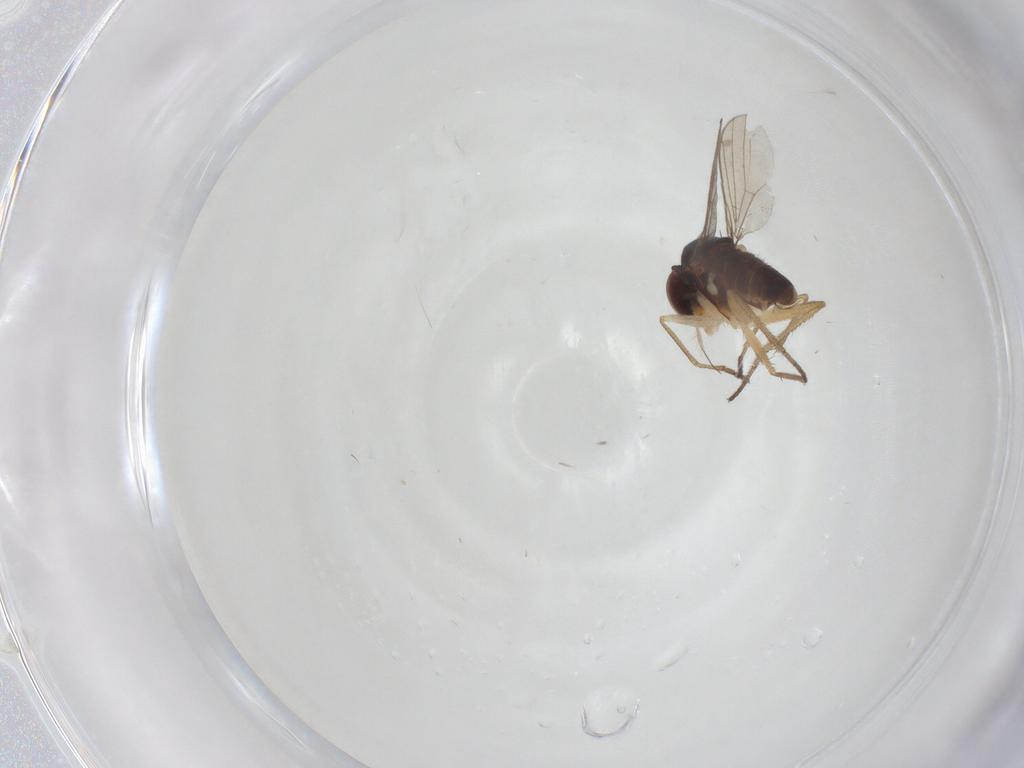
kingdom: Animalia
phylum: Arthropoda
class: Insecta
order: Diptera
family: Dolichopodidae
